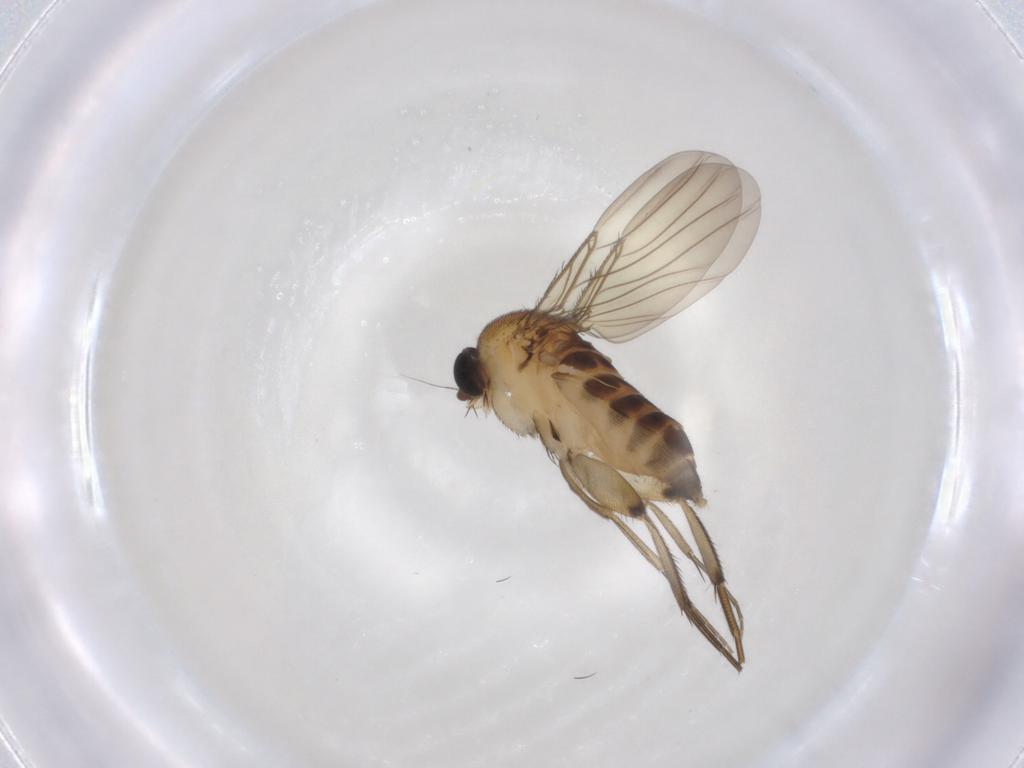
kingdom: Animalia
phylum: Arthropoda
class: Insecta
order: Diptera
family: Phoridae
